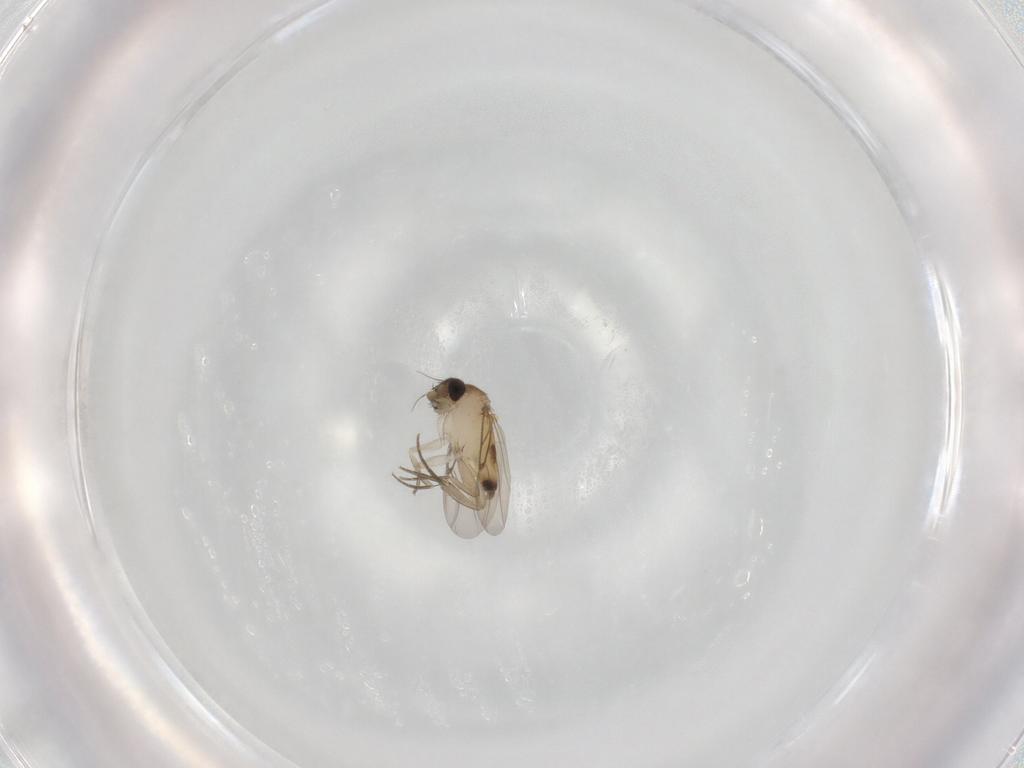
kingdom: Animalia
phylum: Arthropoda
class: Insecta
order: Diptera
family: Phoridae
